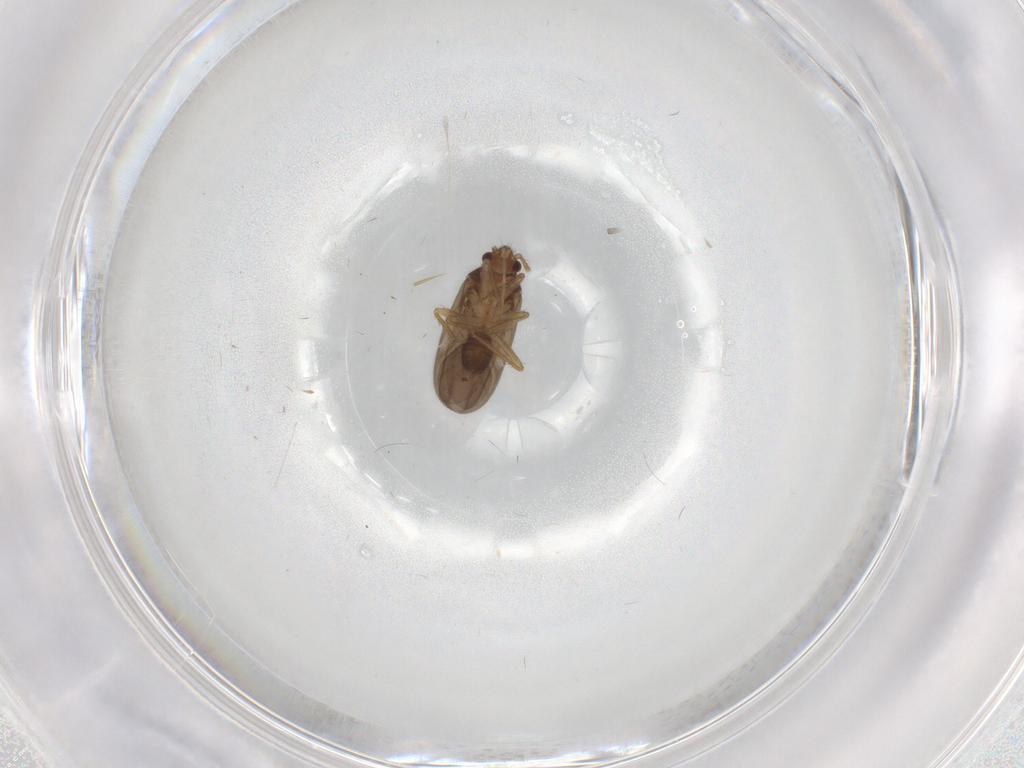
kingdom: Animalia
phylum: Arthropoda
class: Insecta
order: Hemiptera
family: Ceratocombidae
